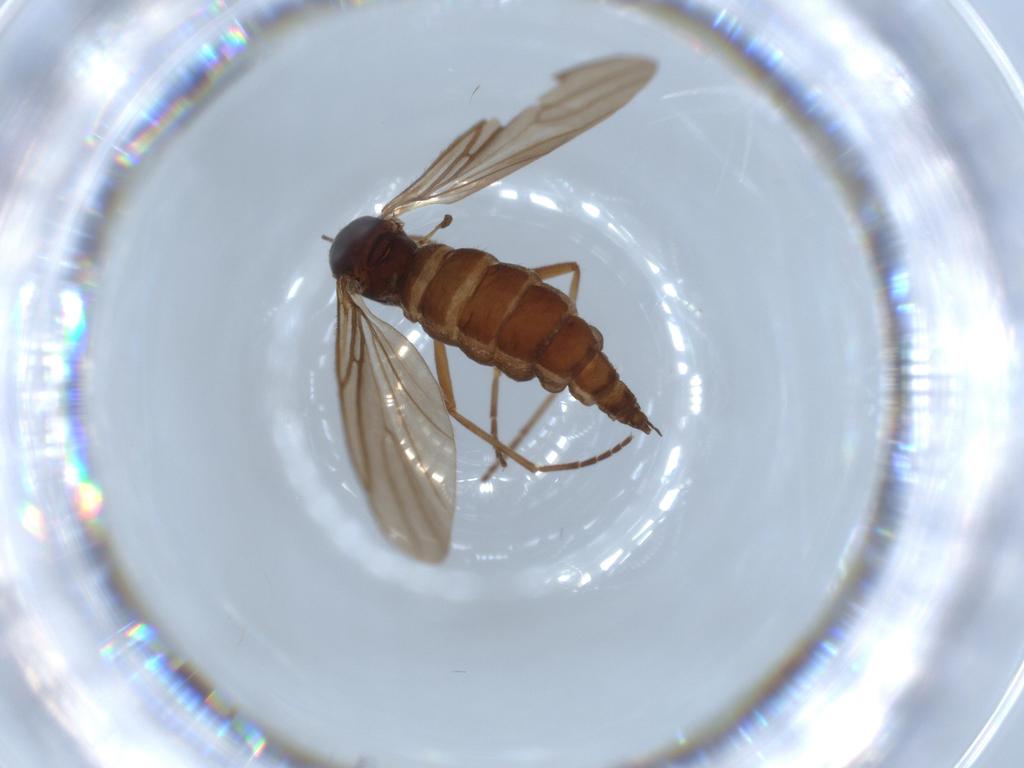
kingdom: Animalia
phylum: Arthropoda
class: Insecta
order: Diptera
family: Sciaridae
